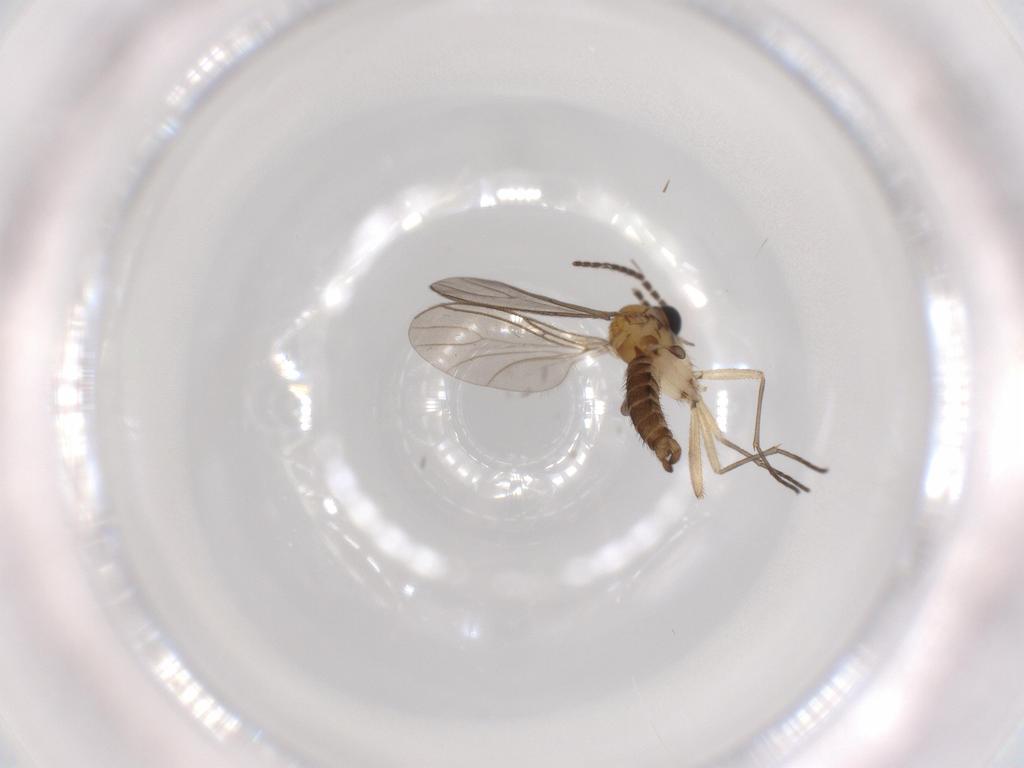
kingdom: Animalia
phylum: Arthropoda
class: Insecta
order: Diptera
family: Sciaridae
